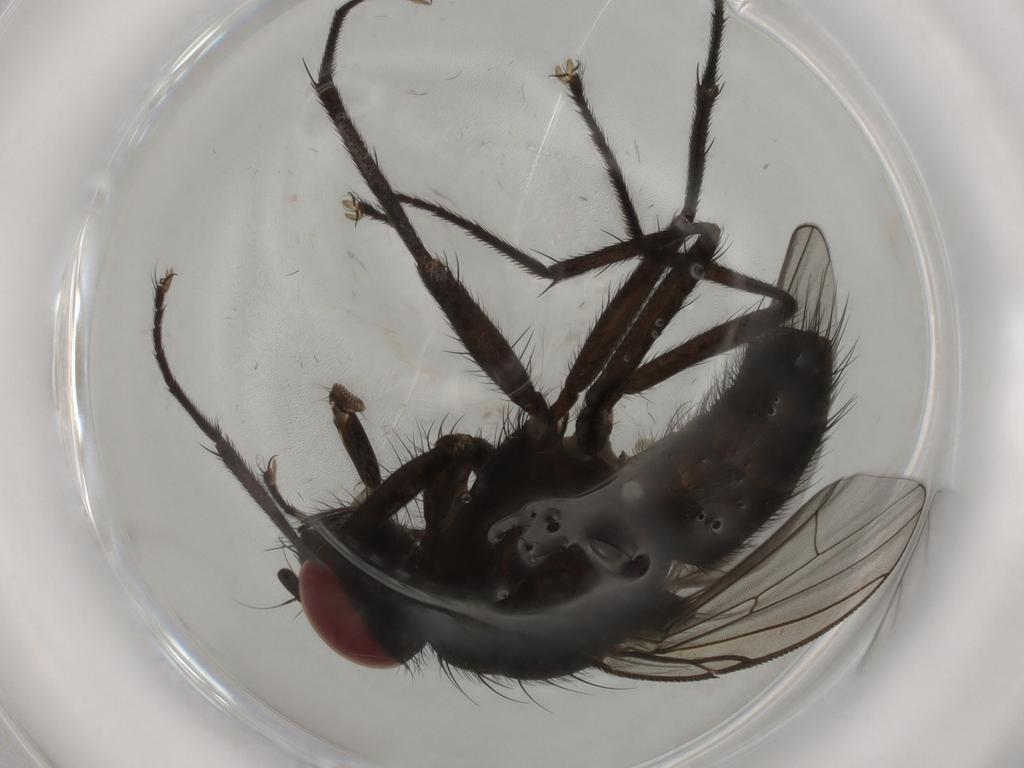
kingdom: Animalia
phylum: Arthropoda
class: Insecta
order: Diptera
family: Muscidae
